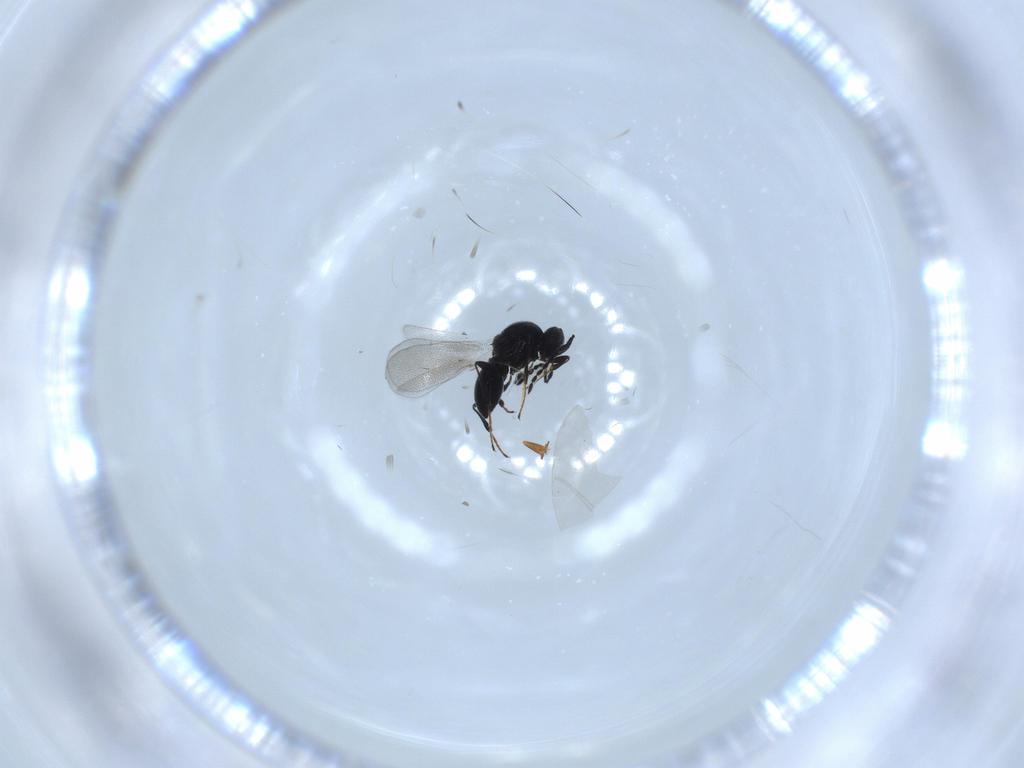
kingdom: Animalia
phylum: Arthropoda
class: Insecta
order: Hymenoptera
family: Formicidae
